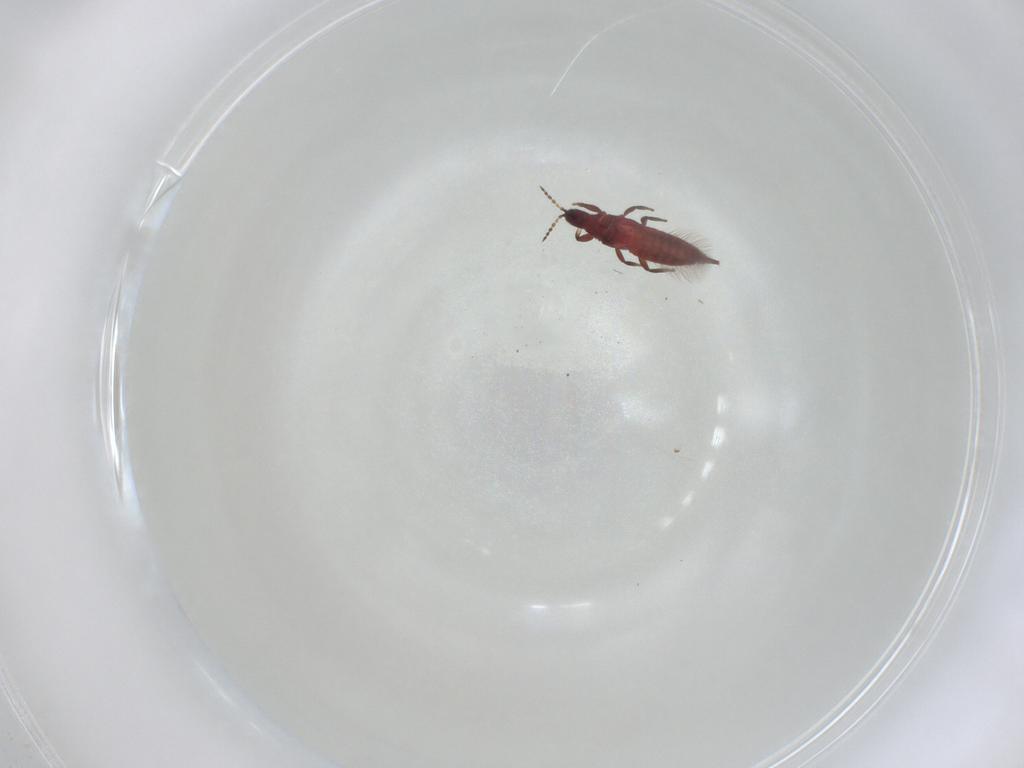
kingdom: Animalia
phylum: Arthropoda
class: Insecta
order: Thysanoptera
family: Phlaeothripidae
